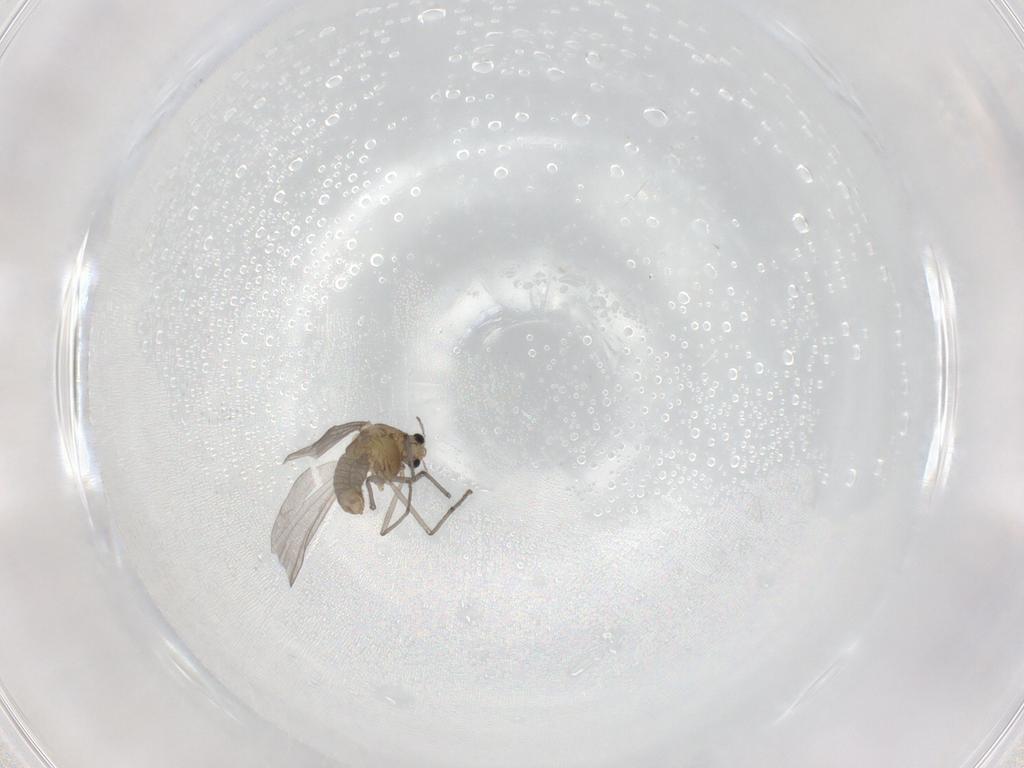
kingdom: Animalia
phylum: Arthropoda
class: Insecta
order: Diptera
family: Chironomidae
